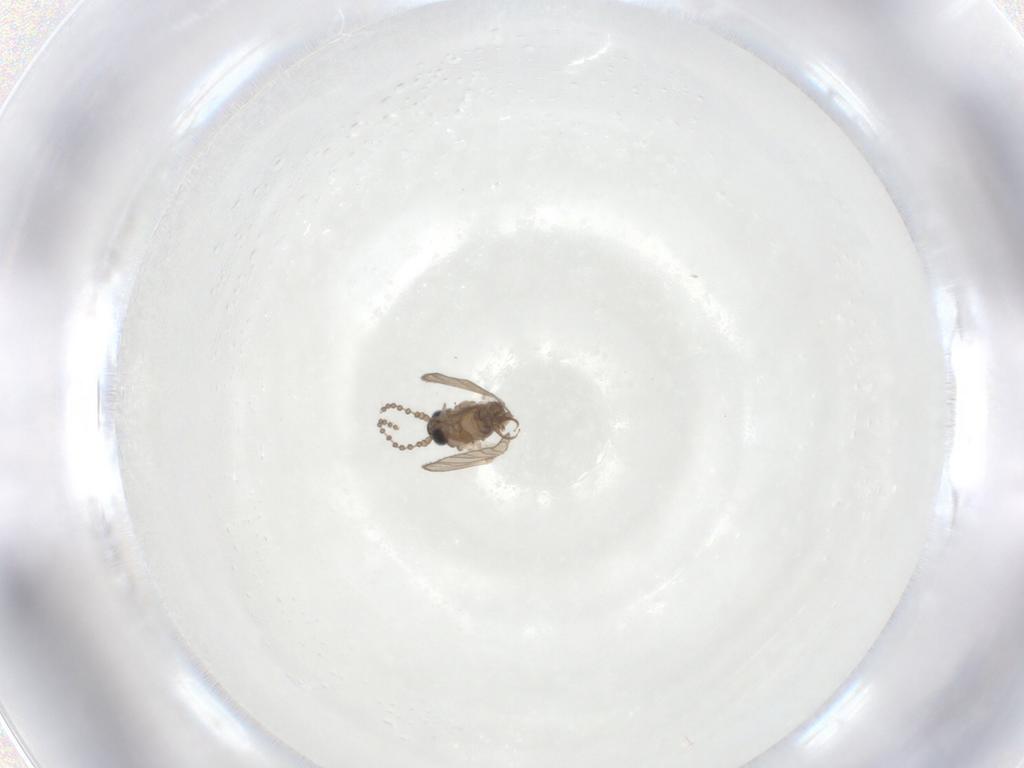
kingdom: Animalia
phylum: Arthropoda
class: Insecta
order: Diptera
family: Psychodidae
